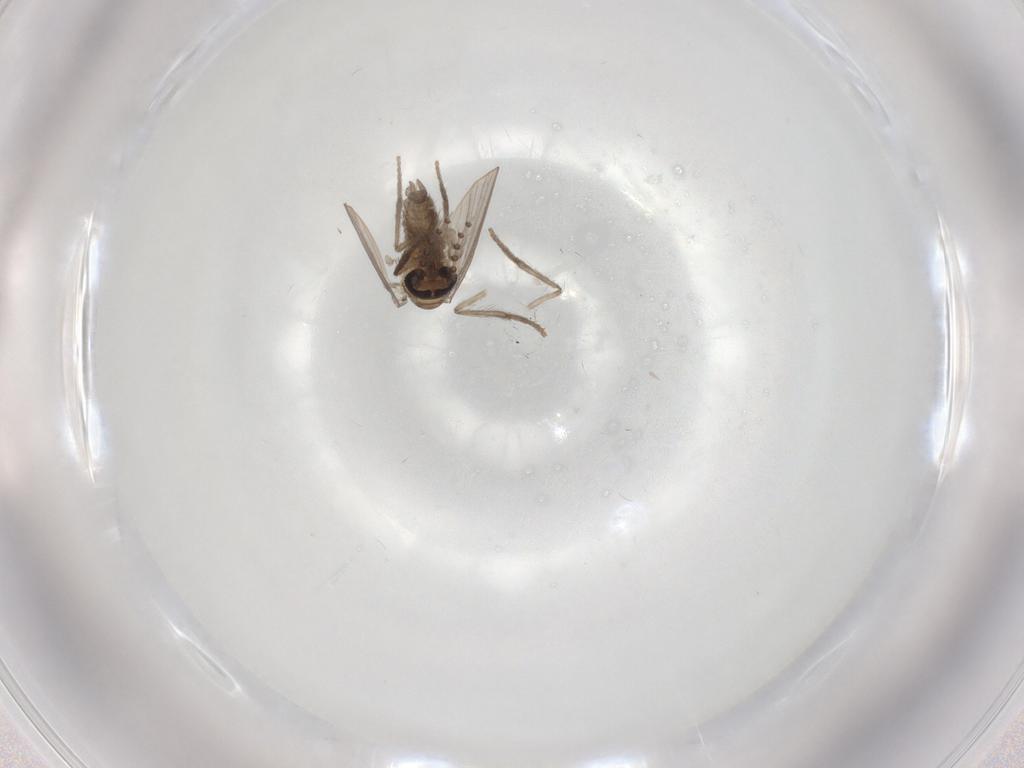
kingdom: Animalia
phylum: Arthropoda
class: Insecta
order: Diptera
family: Psychodidae
